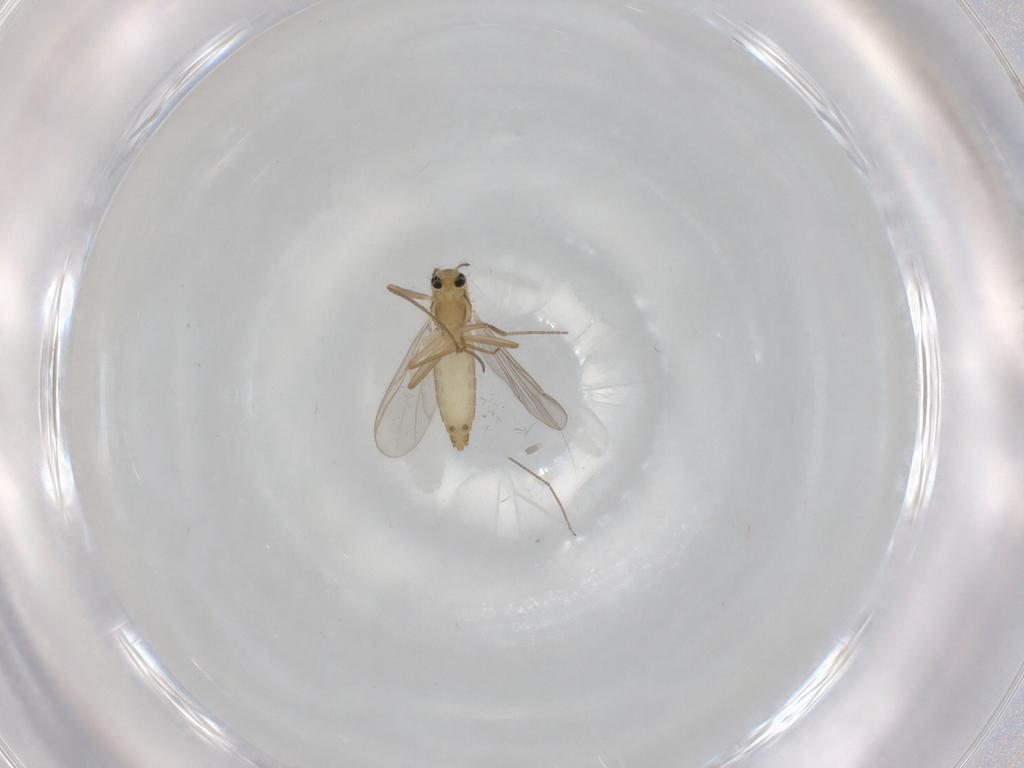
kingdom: Animalia
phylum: Arthropoda
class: Insecta
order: Diptera
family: Chironomidae
